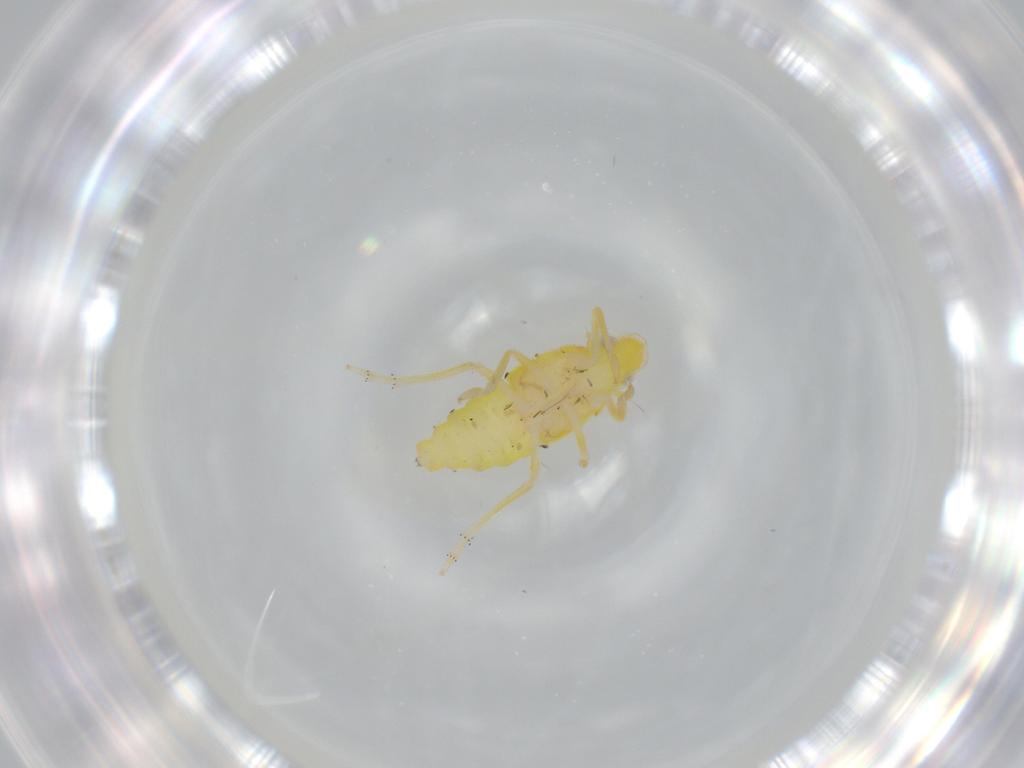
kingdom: Animalia
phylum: Arthropoda
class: Insecta
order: Hemiptera
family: Tropiduchidae
